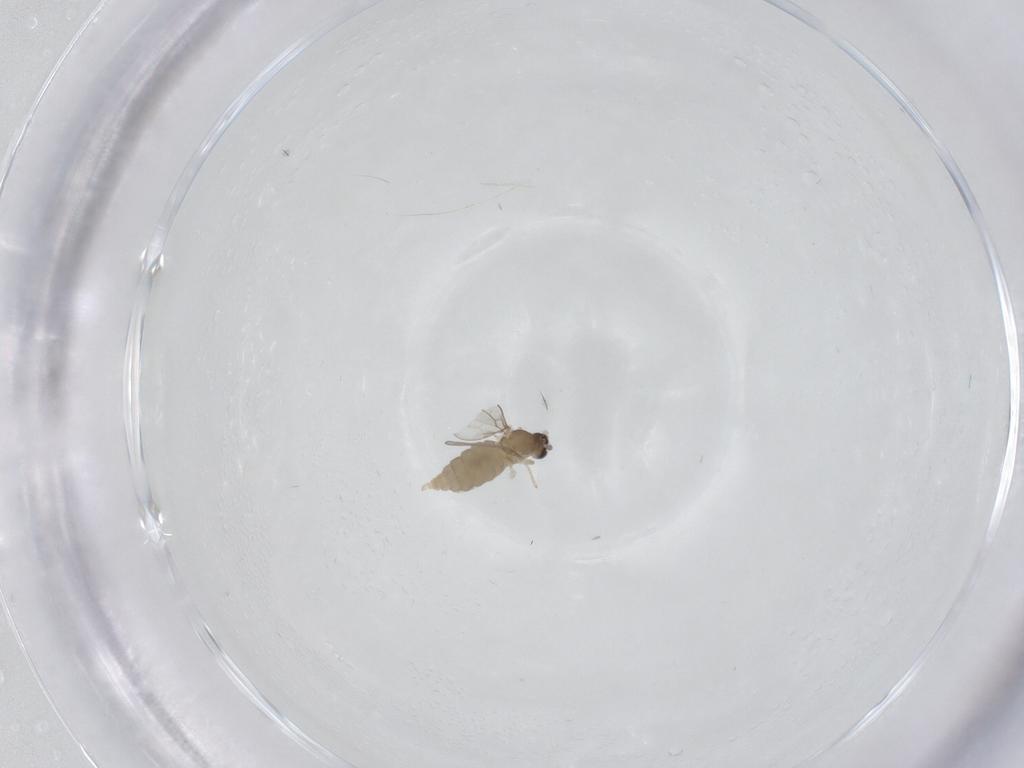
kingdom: Animalia
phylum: Arthropoda
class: Insecta
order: Diptera
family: Cecidomyiidae
